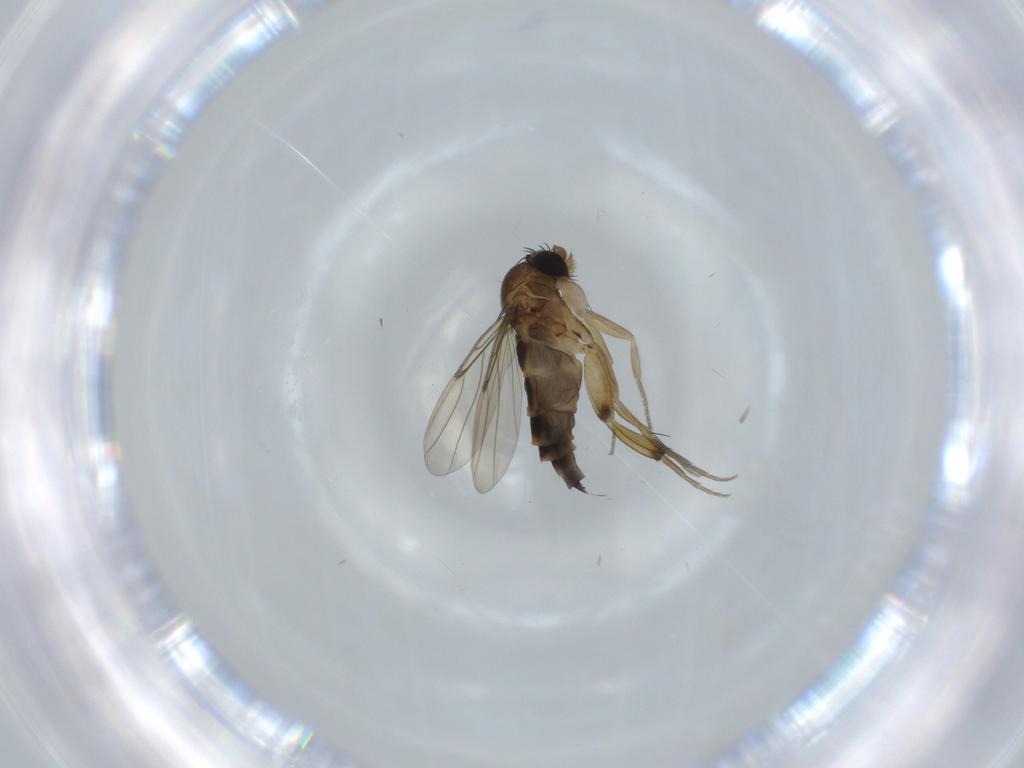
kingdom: Animalia
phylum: Arthropoda
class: Insecta
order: Diptera
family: Phoridae
